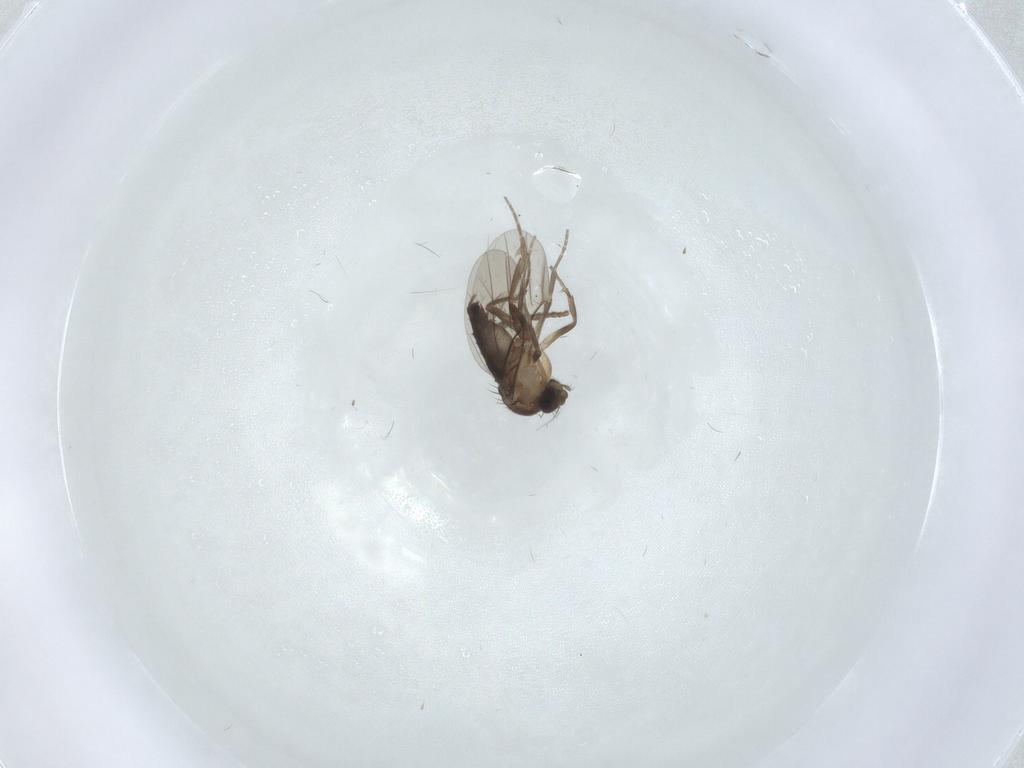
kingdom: Animalia
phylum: Arthropoda
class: Insecta
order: Diptera
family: Phoridae
